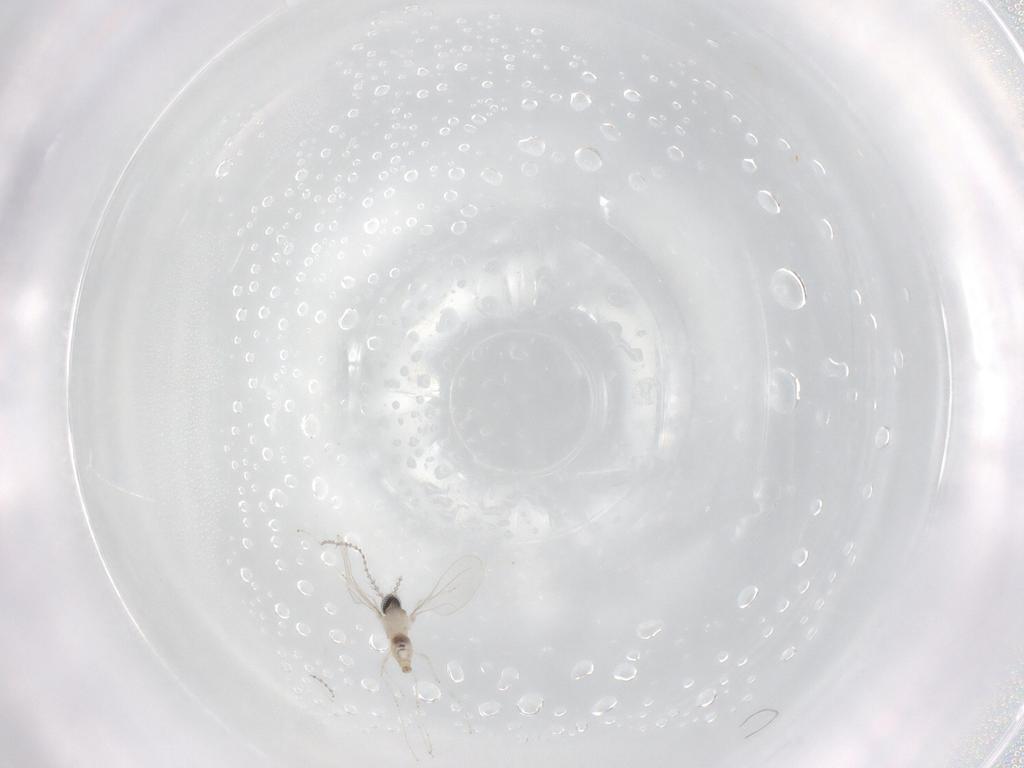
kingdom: Animalia
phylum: Arthropoda
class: Insecta
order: Diptera
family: Cecidomyiidae
